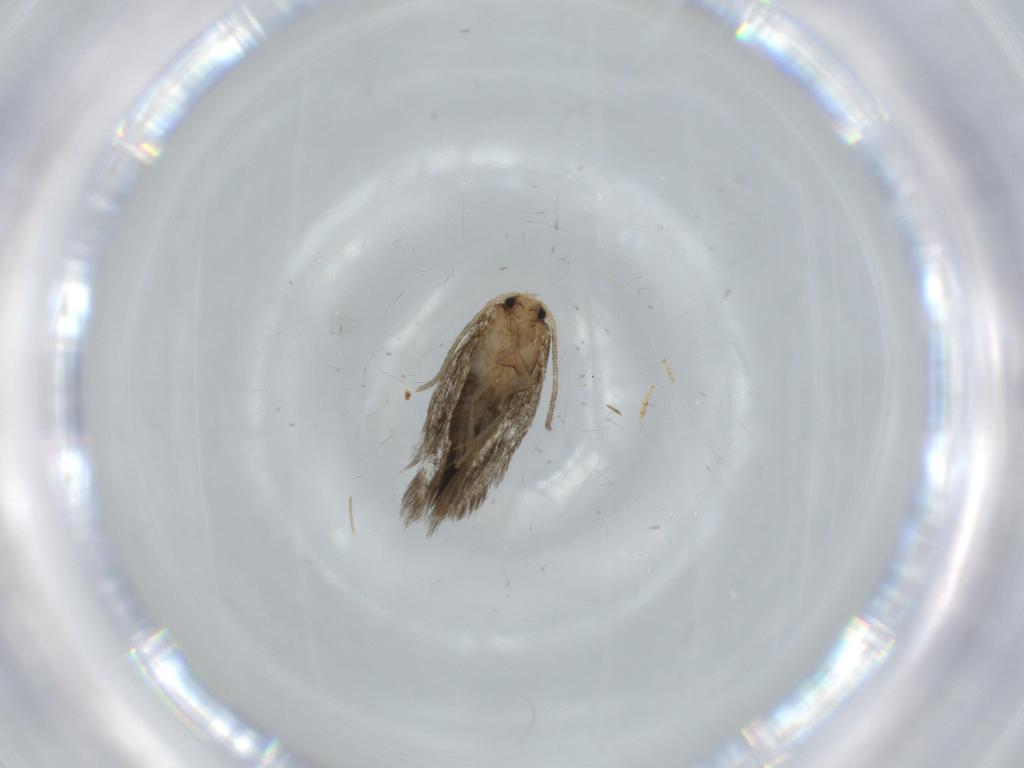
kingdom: Animalia
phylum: Arthropoda
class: Insecta
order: Lepidoptera
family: Nepticulidae
